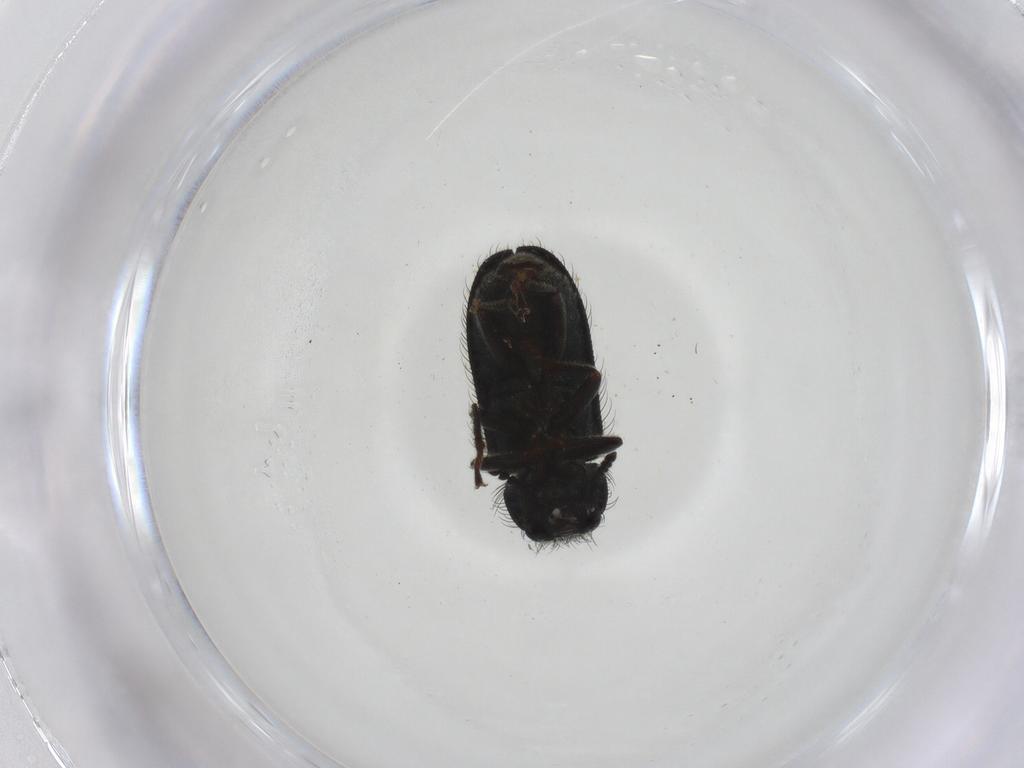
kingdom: Animalia
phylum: Arthropoda
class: Insecta
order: Coleoptera
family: Melyridae
